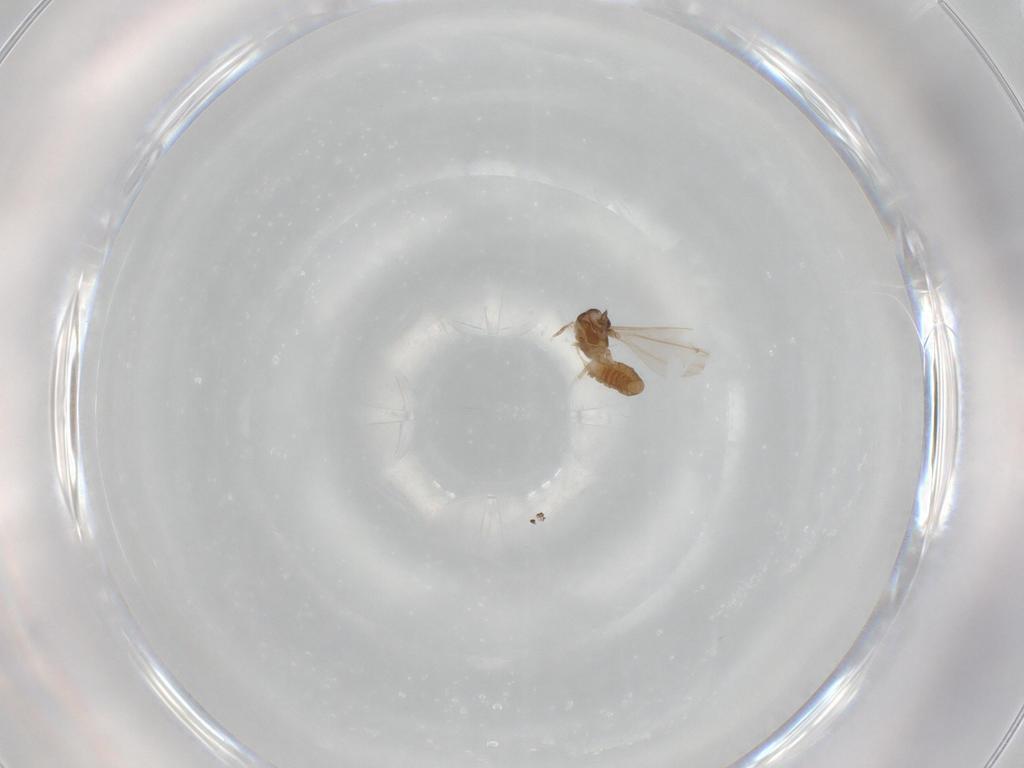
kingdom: Animalia
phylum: Arthropoda
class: Insecta
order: Diptera
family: Cecidomyiidae
